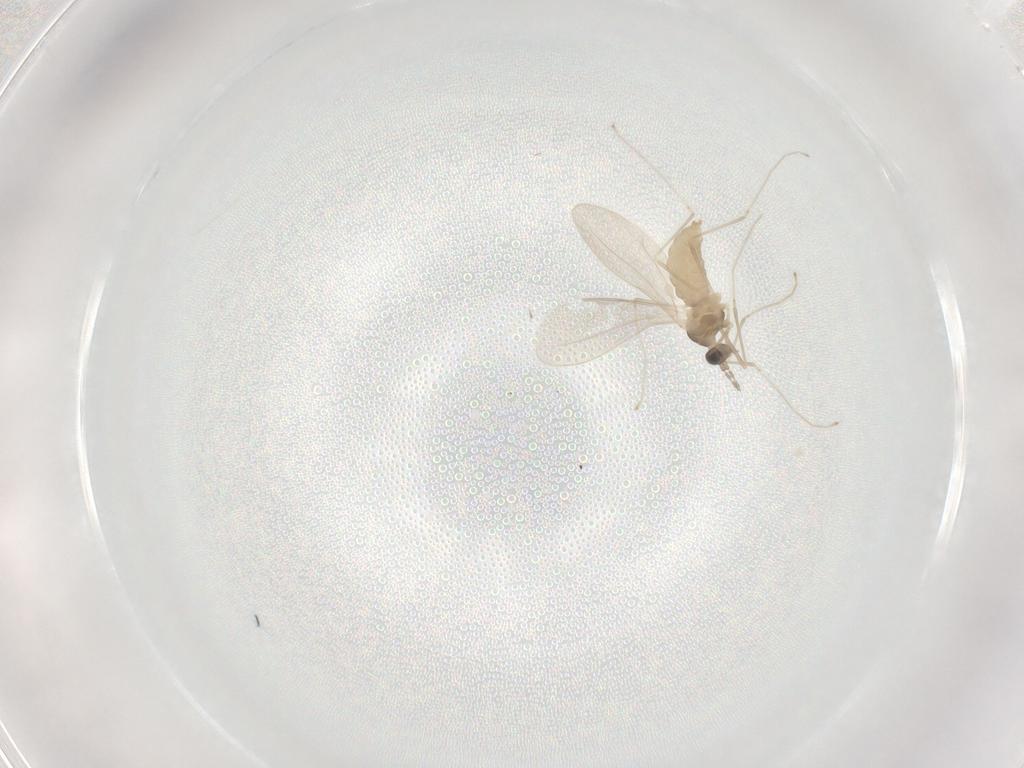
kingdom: Animalia
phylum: Arthropoda
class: Insecta
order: Diptera
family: Cecidomyiidae
